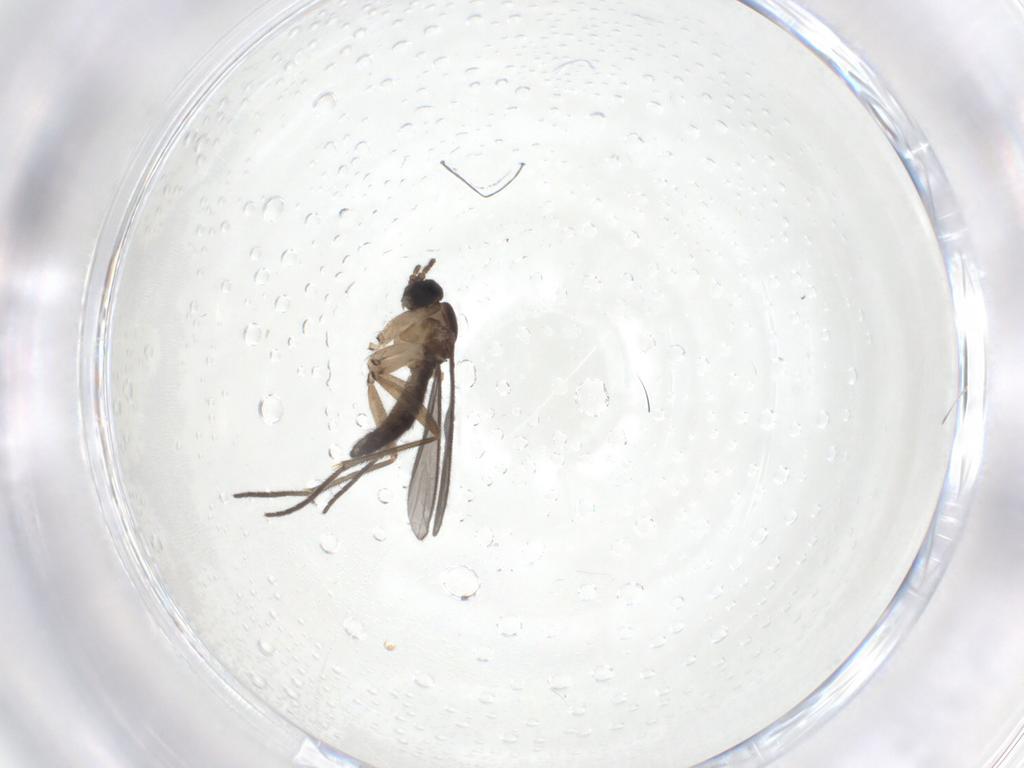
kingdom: Animalia
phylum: Arthropoda
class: Insecta
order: Diptera
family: Sciaridae
